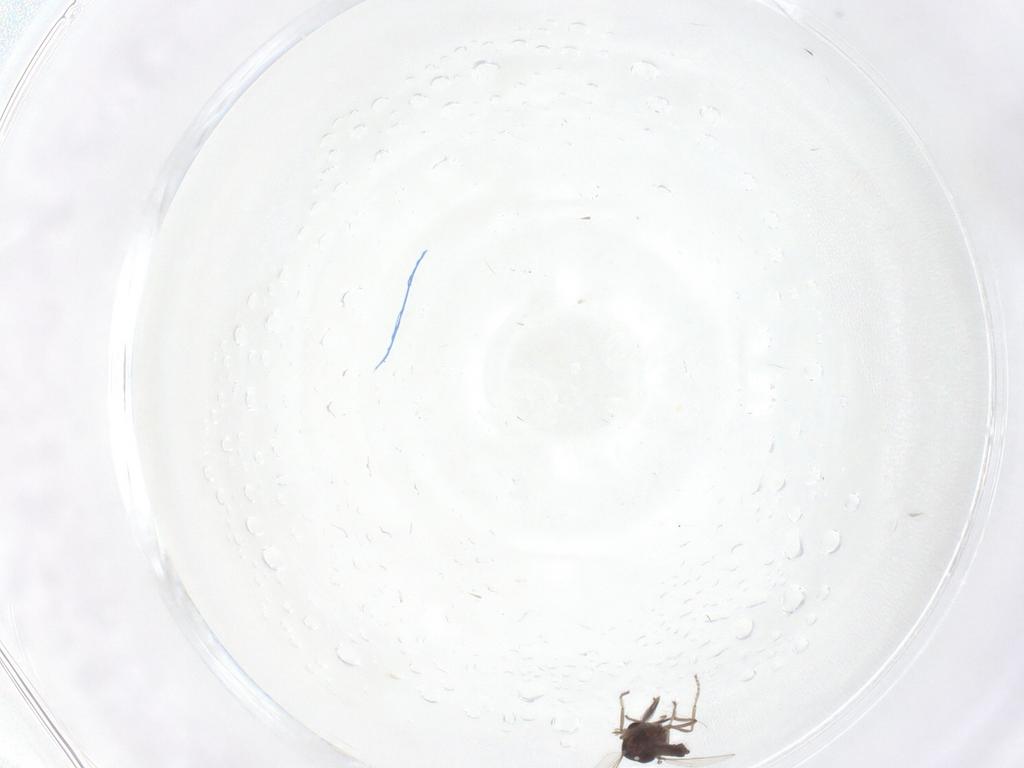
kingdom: Animalia
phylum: Arthropoda
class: Insecta
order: Diptera
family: Ceratopogonidae
